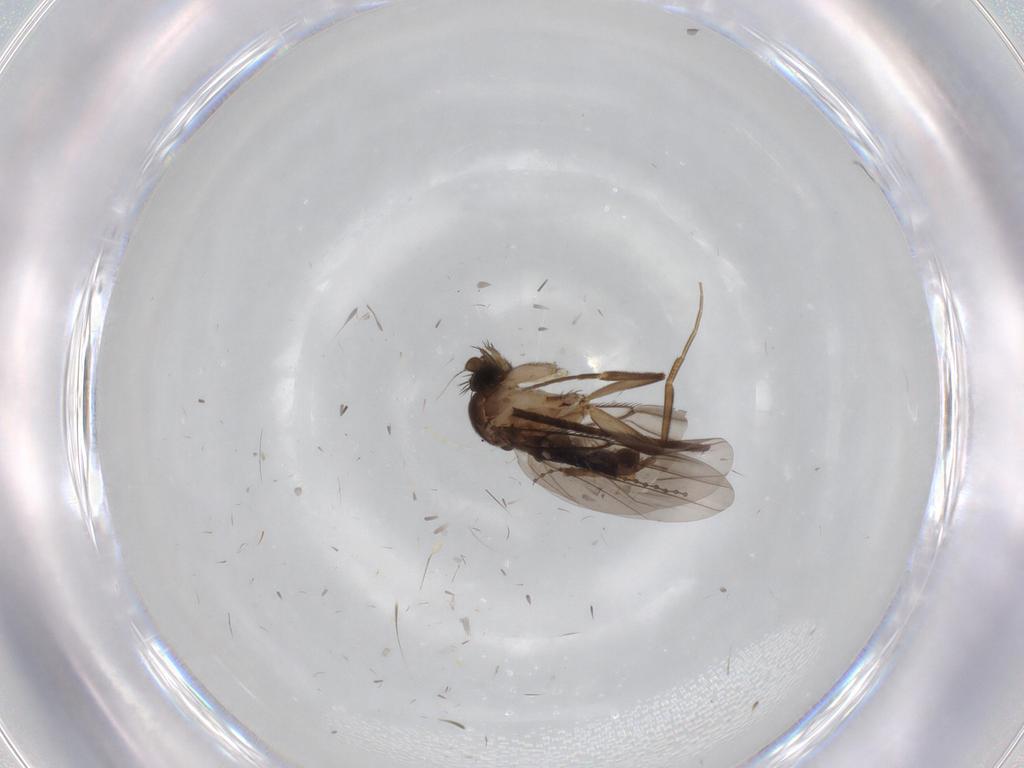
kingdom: Animalia
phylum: Arthropoda
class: Insecta
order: Diptera
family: Phoridae
